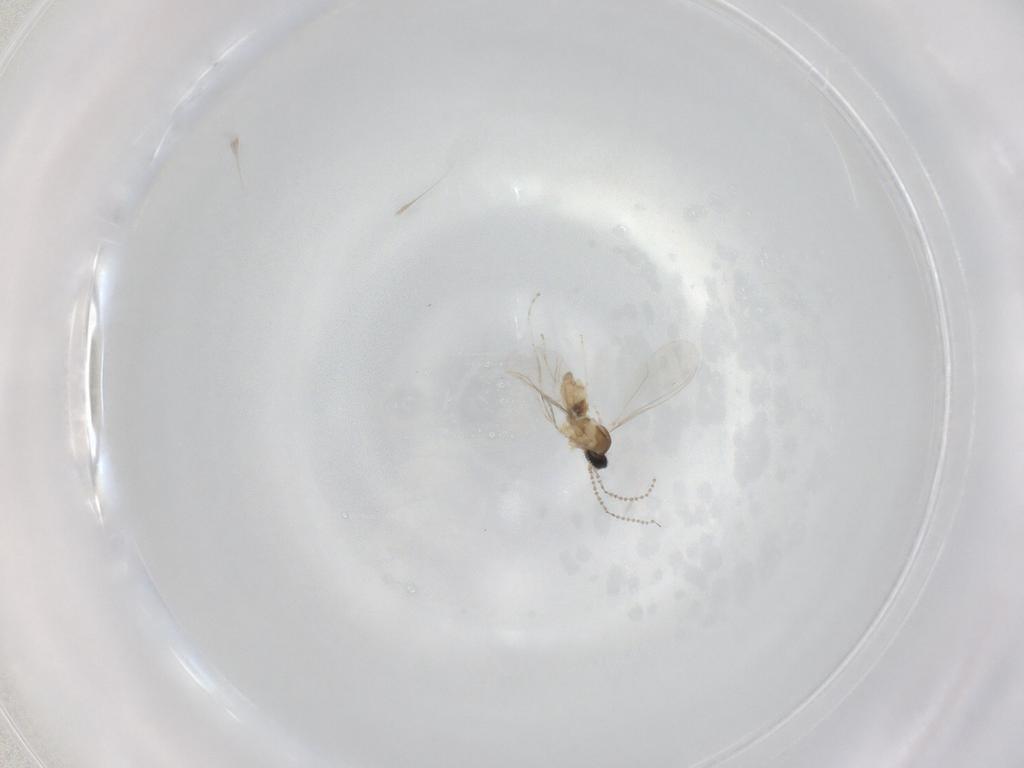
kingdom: Animalia
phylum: Arthropoda
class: Insecta
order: Diptera
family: Cecidomyiidae
